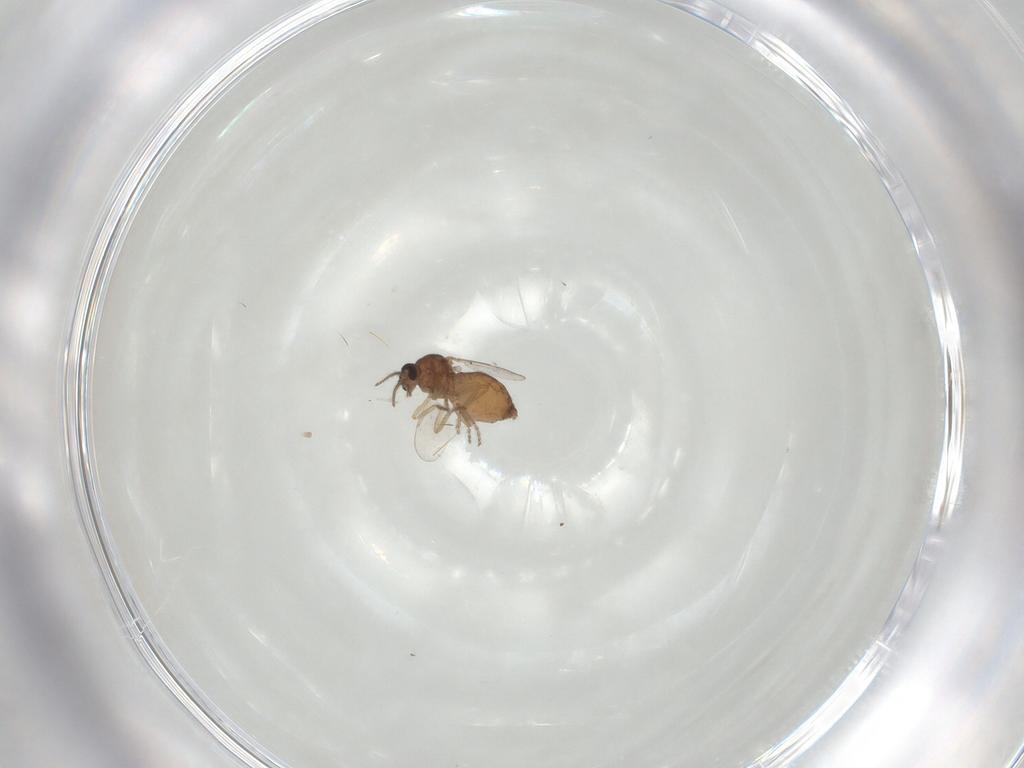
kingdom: Animalia
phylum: Arthropoda
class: Insecta
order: Diptera
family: Ceratopogonidae
